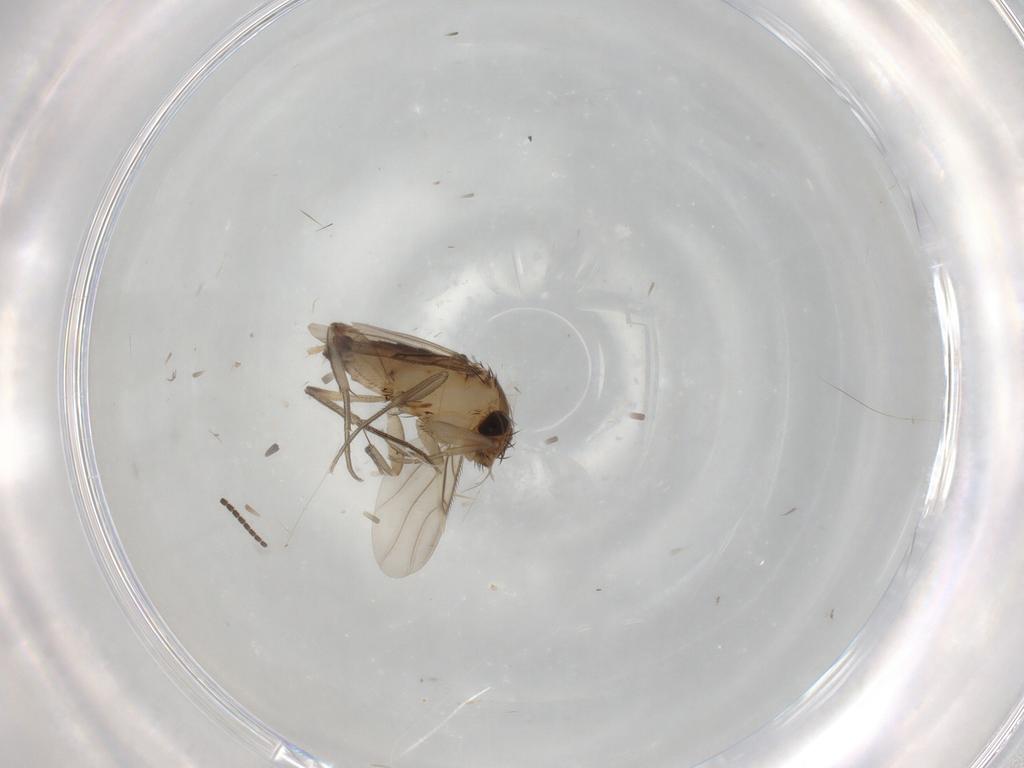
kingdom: Animalia
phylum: Arthropoda
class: Insecta
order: Diptera
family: Phoridae
